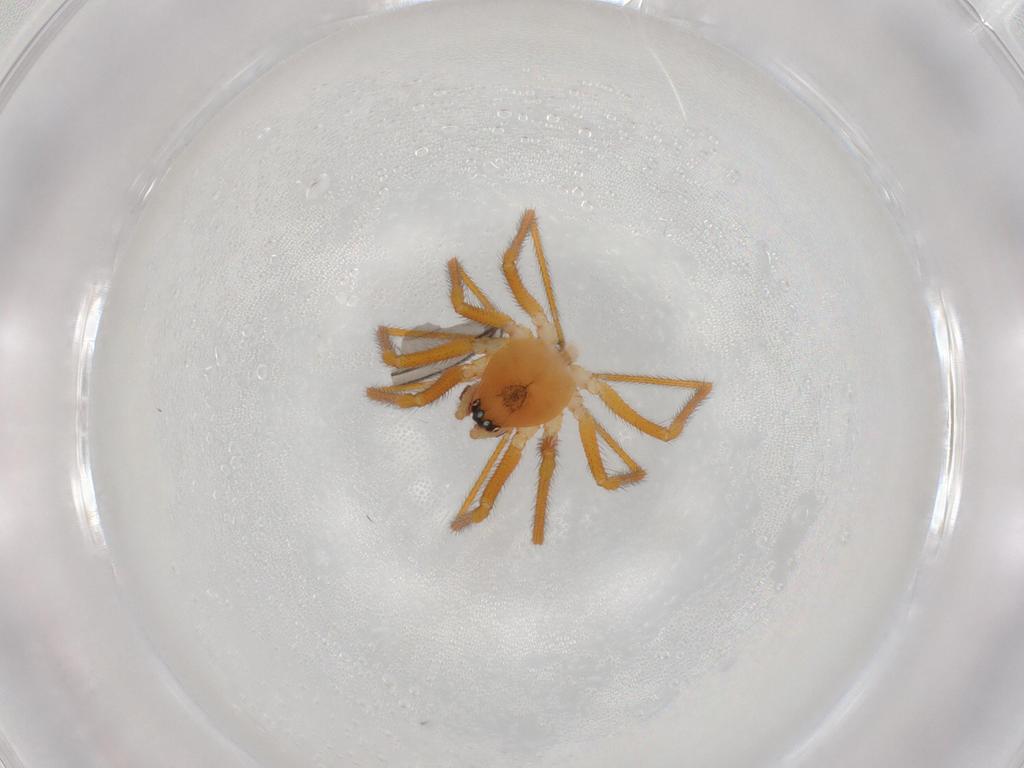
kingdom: Animalia
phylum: Arthropoda
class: Arachnida
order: Araneae
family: Linyphiidae
